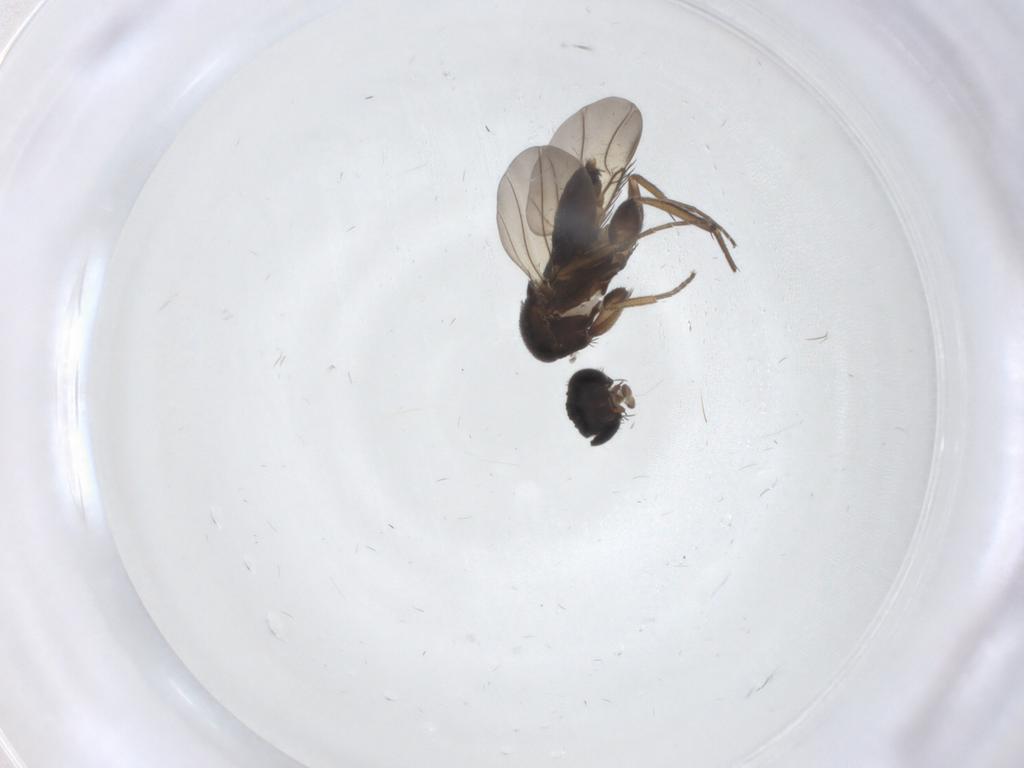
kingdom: Animalia
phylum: Arthropoda
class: Insecta
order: Diptera
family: Phoridae
